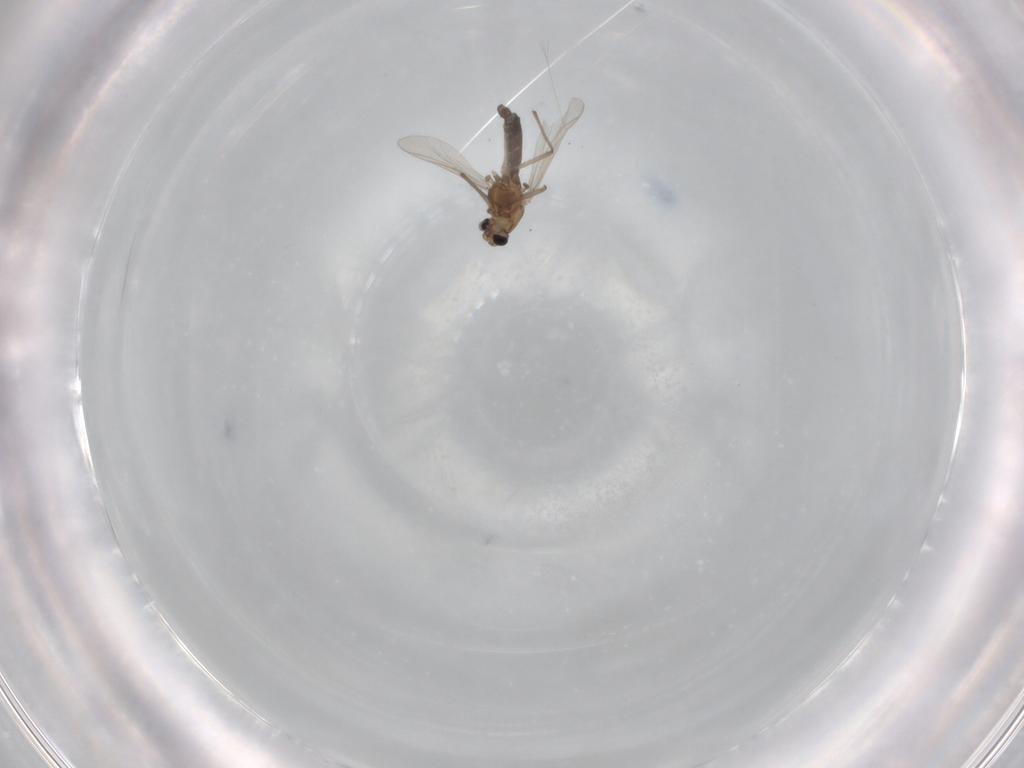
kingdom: Animalia
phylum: Arthropoda
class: Insecta
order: Diptera
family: Chironomidae
